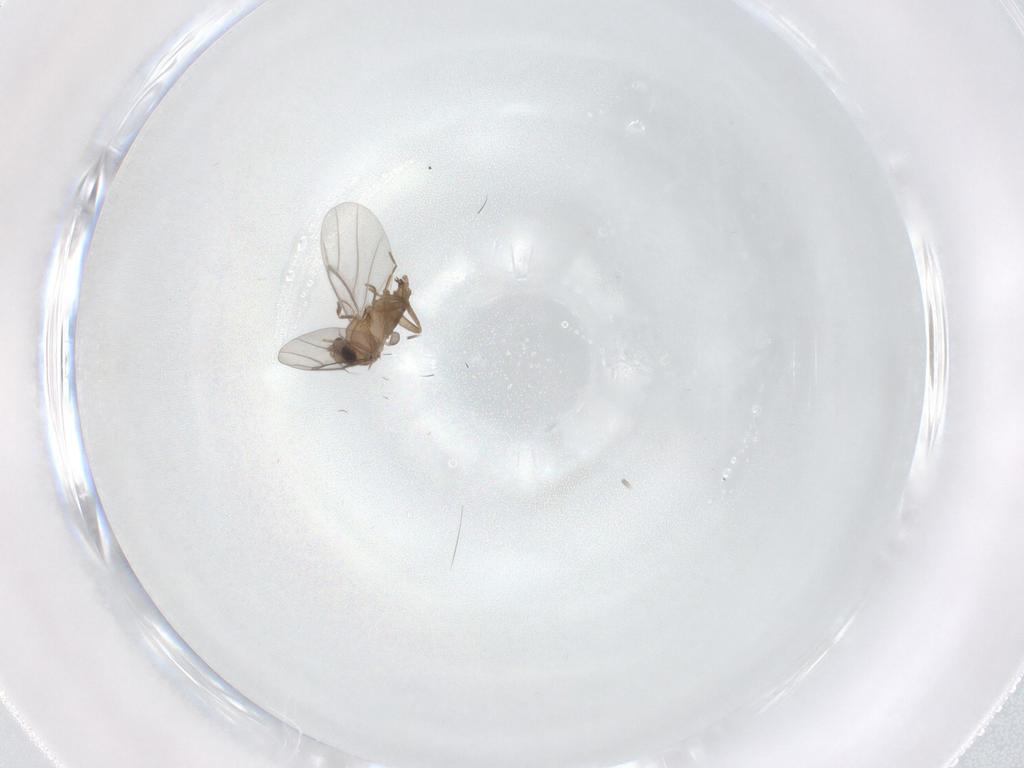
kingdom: Animalia
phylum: Arthropoda
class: Insecta
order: Diptera
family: Cecidomyiidae
